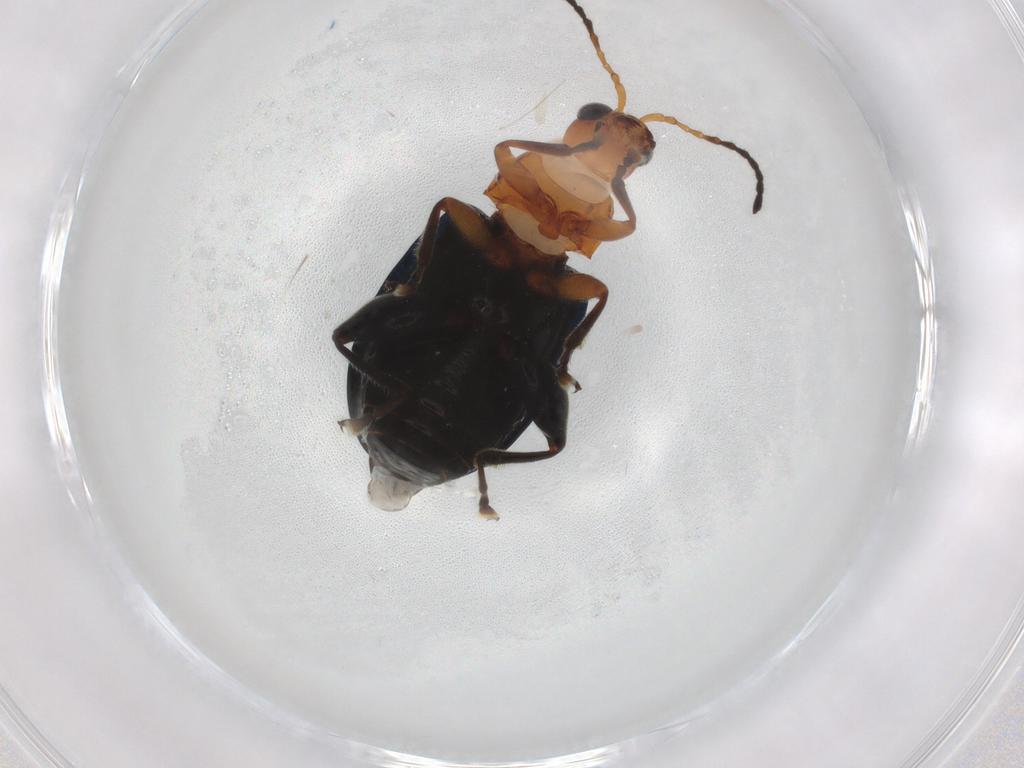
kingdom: Animalia
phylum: Arthropoda
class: Insecta
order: Coleoptera
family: Chrysomelidae
